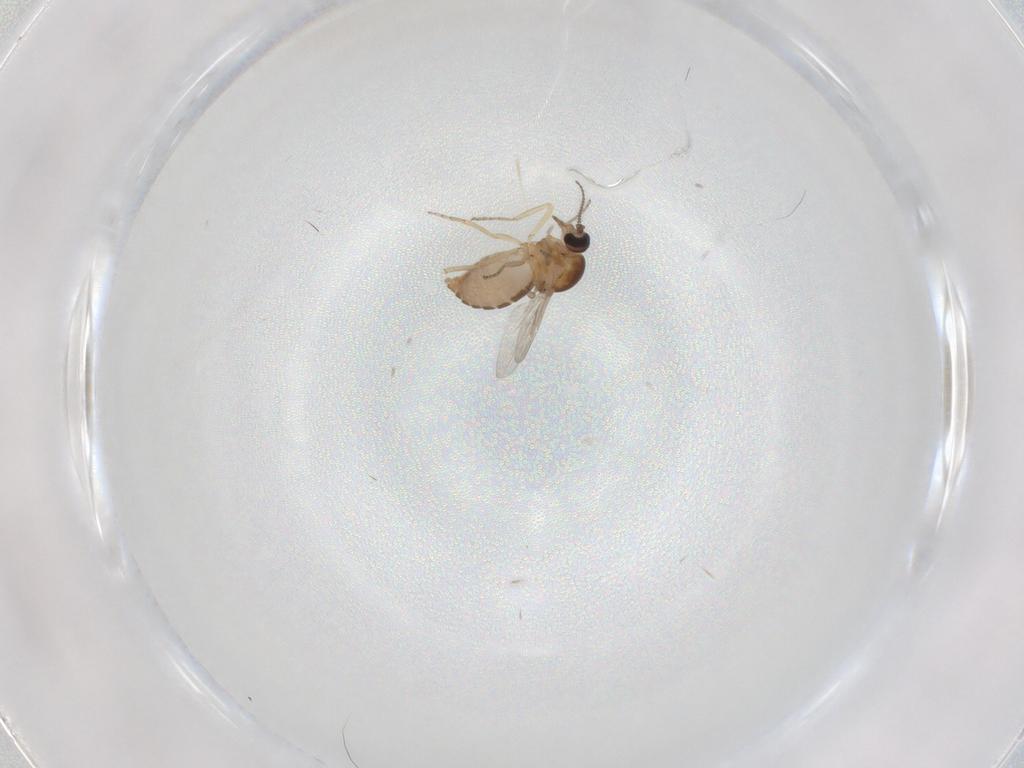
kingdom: Animalia
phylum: Arthropoda
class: Insecta
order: Diptera
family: Ceratopogonidae
